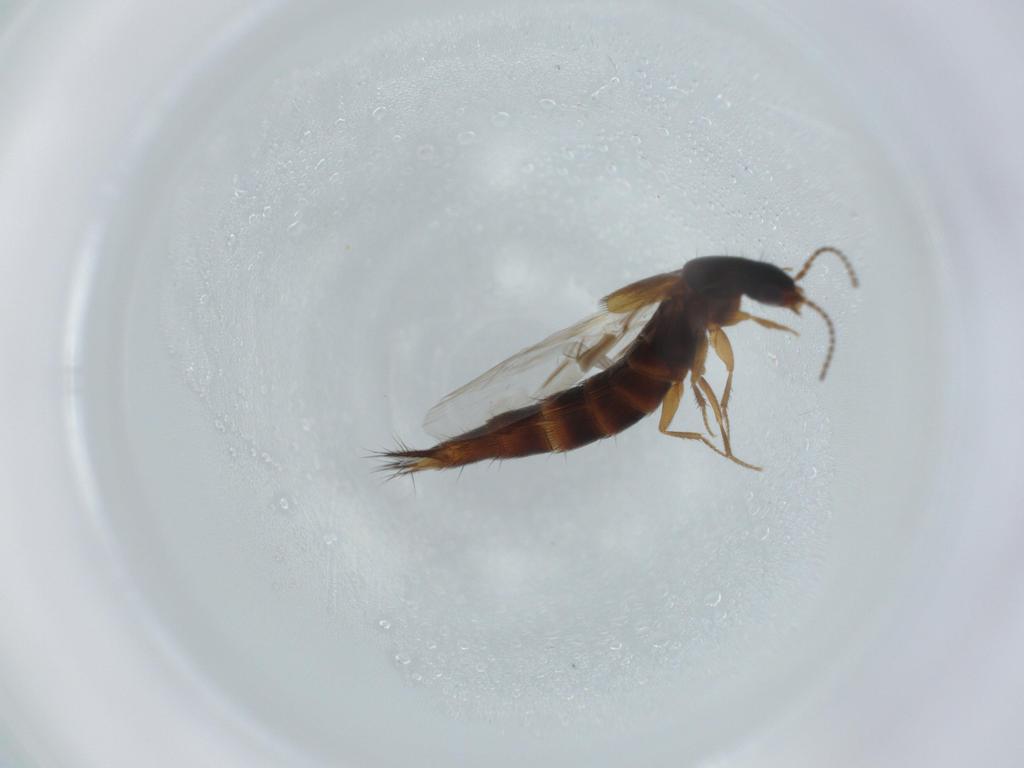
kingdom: Animalia
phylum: Arthropoda
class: Insecta
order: Coleoptera
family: Staphylinidae
